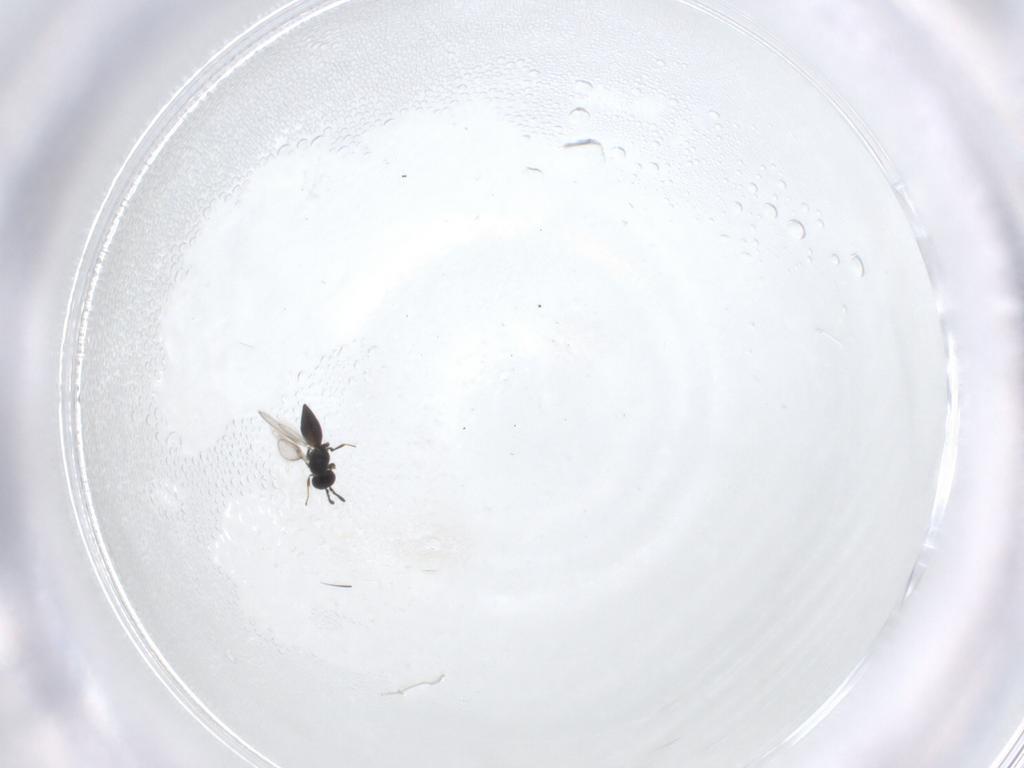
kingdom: Animalia
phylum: Arthropoda
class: Insecta
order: Hymenoptera
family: Scelionidae
